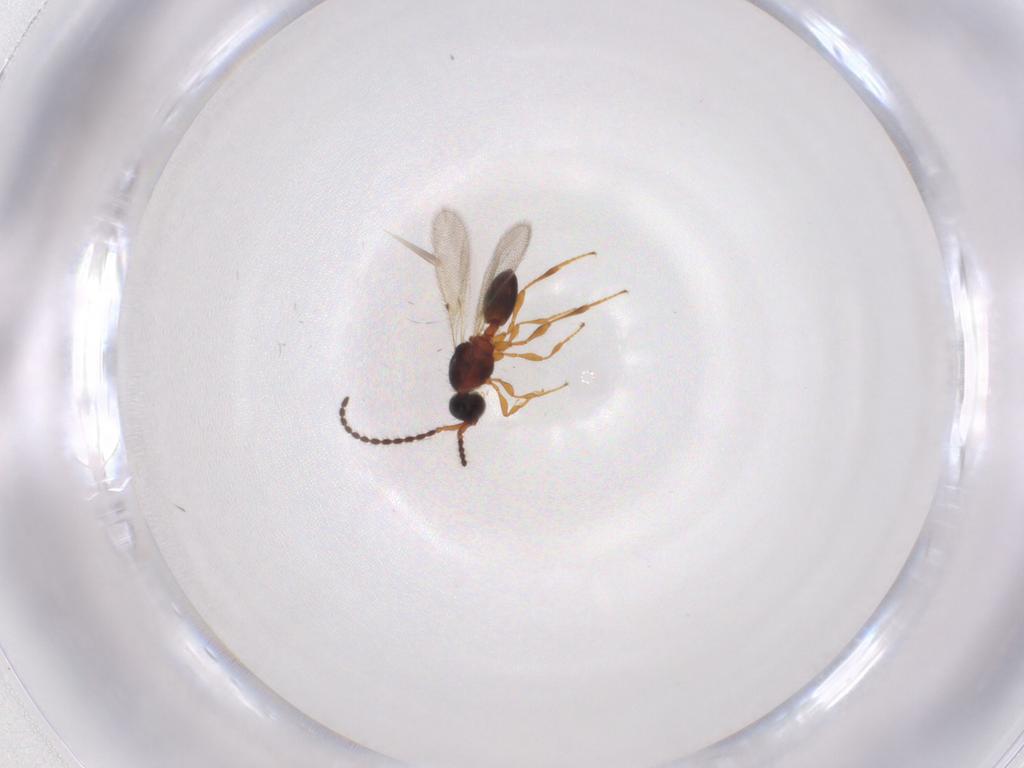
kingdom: Animalia
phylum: Arthropoda
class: Insecta
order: Hymenoptera
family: Diapriidae
